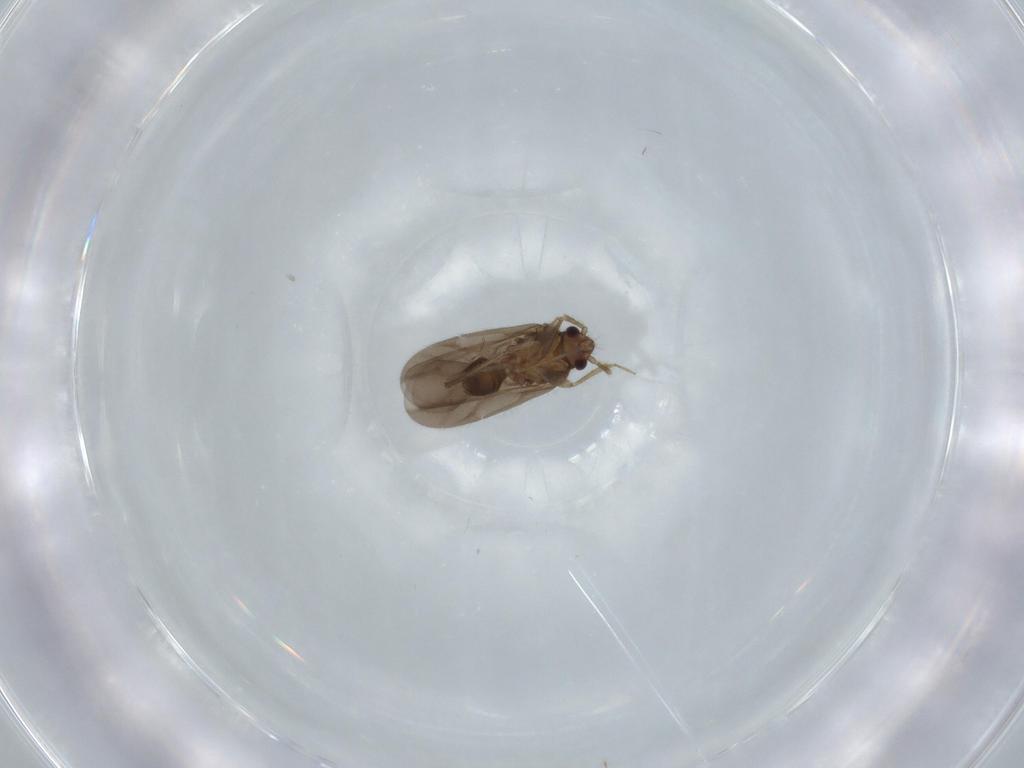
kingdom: Animalia
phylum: Arthropoda
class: Insecta
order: Hemiptera
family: Ceratocombidae
